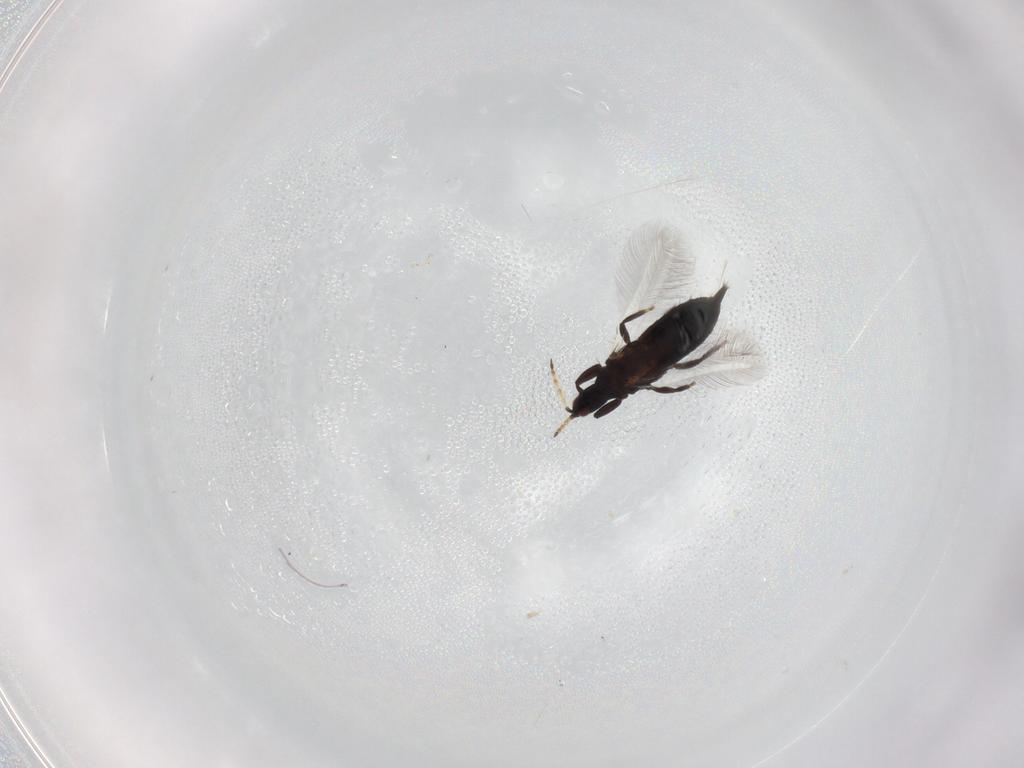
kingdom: Animalia
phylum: Arthropoda
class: Insecta
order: Thysanoptera
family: Phlaeothripidae
